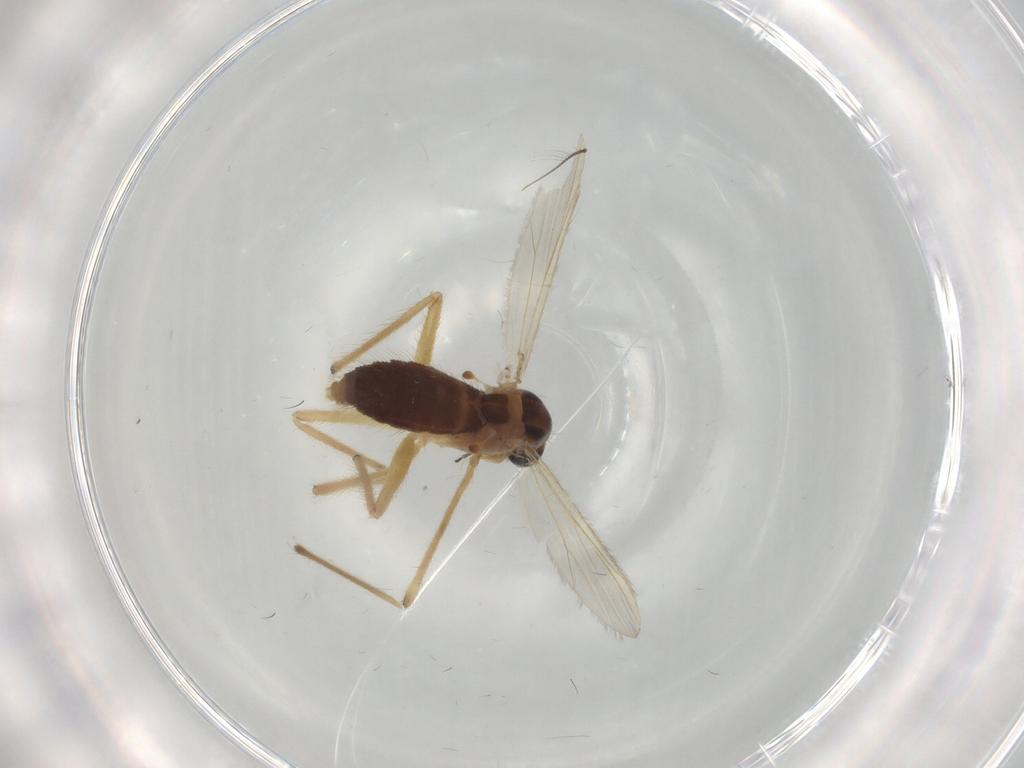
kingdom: Animalia
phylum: Arthropoda
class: Insecta
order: Diptera
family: Chironomidae
